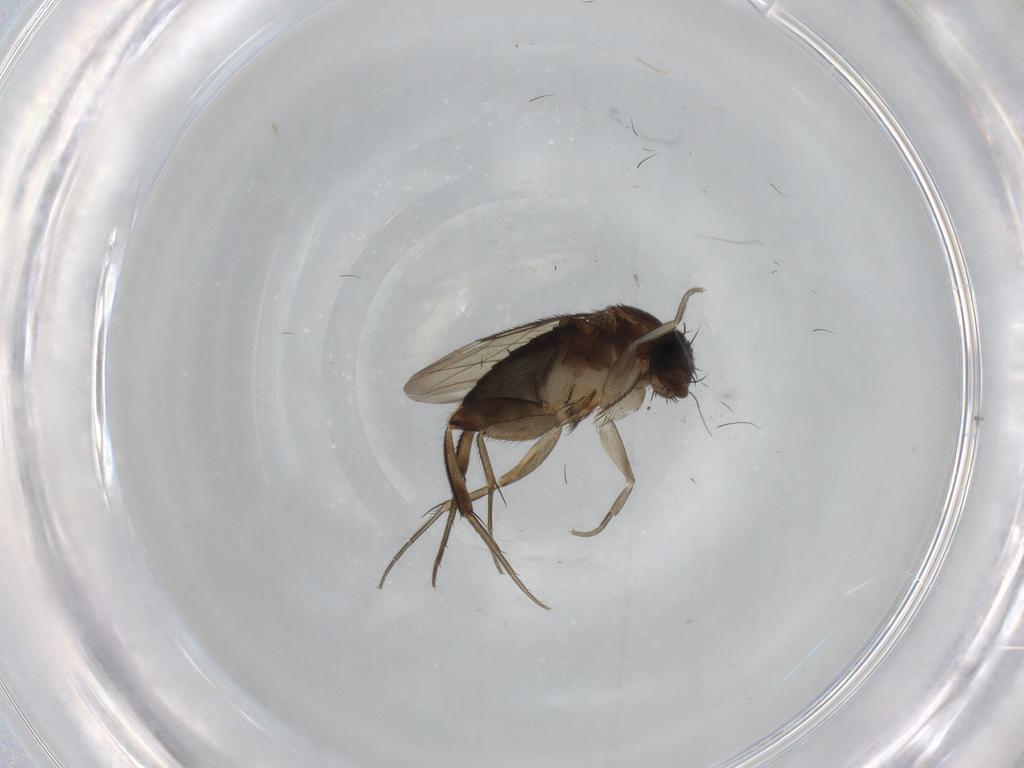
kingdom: Animalia
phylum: Arthropoda
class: Insecta
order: Diptera
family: Phoridae
